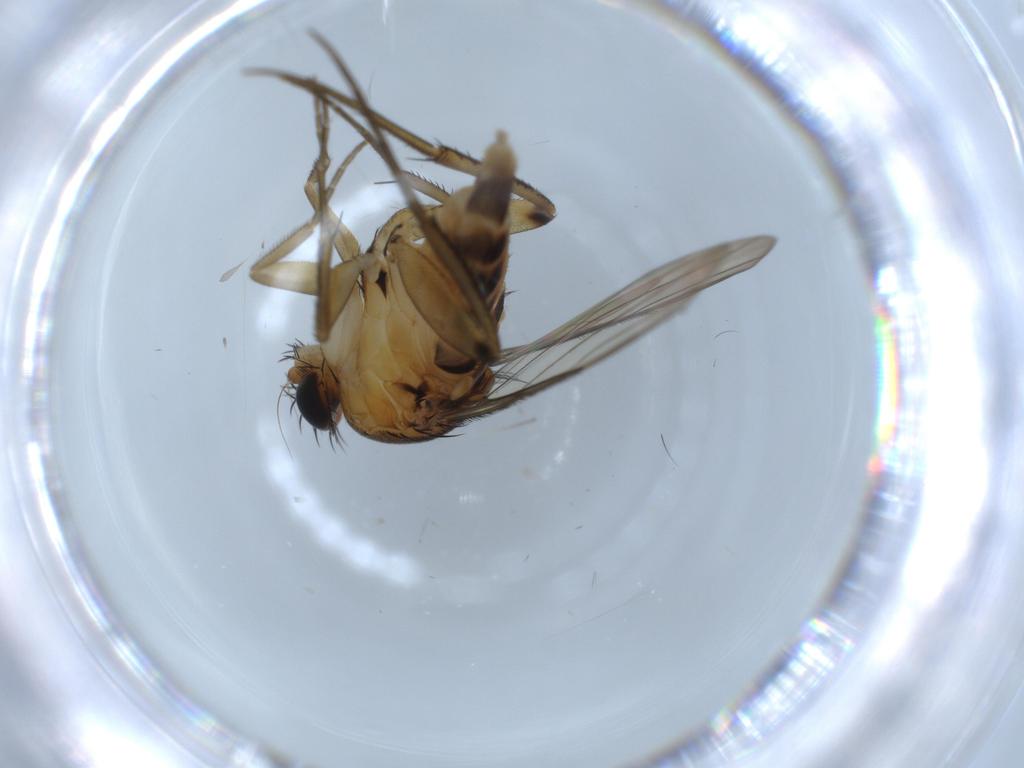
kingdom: Animalia
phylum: Arthropoda
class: Insecta
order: Diptera
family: Phoridae
